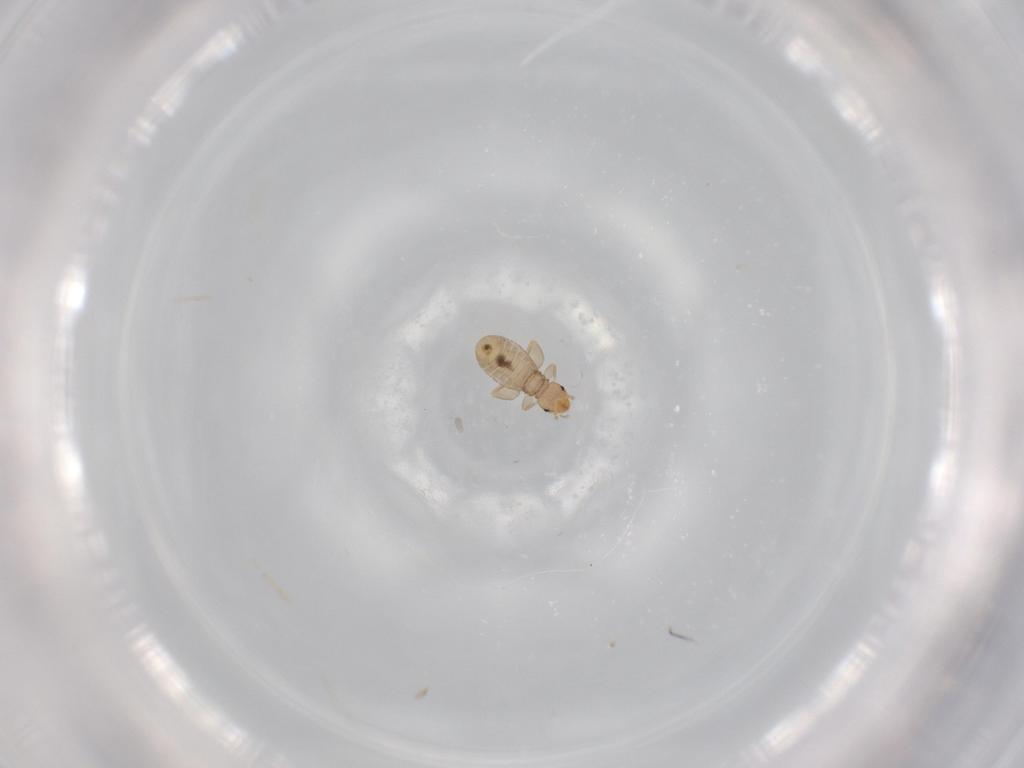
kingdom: Animalia
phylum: Arthropoda
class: Insecta
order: Psocodea
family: Liposcelididae
